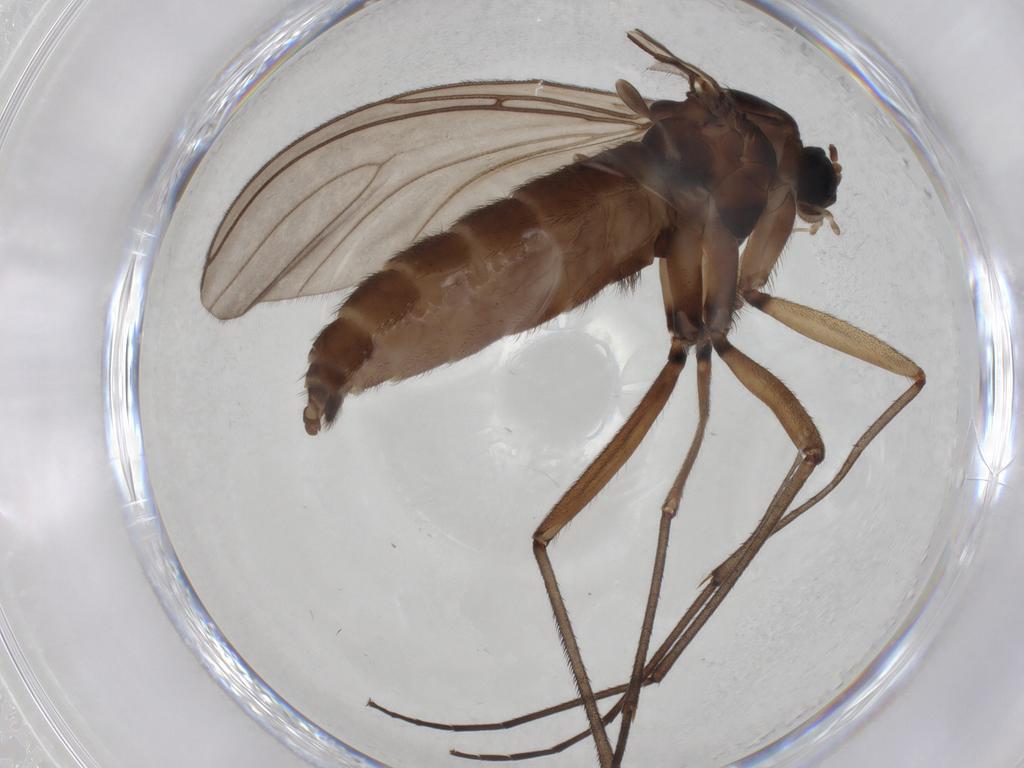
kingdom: Animalia
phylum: Arthropoda
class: Insecta
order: Diptera
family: Sciaridae
